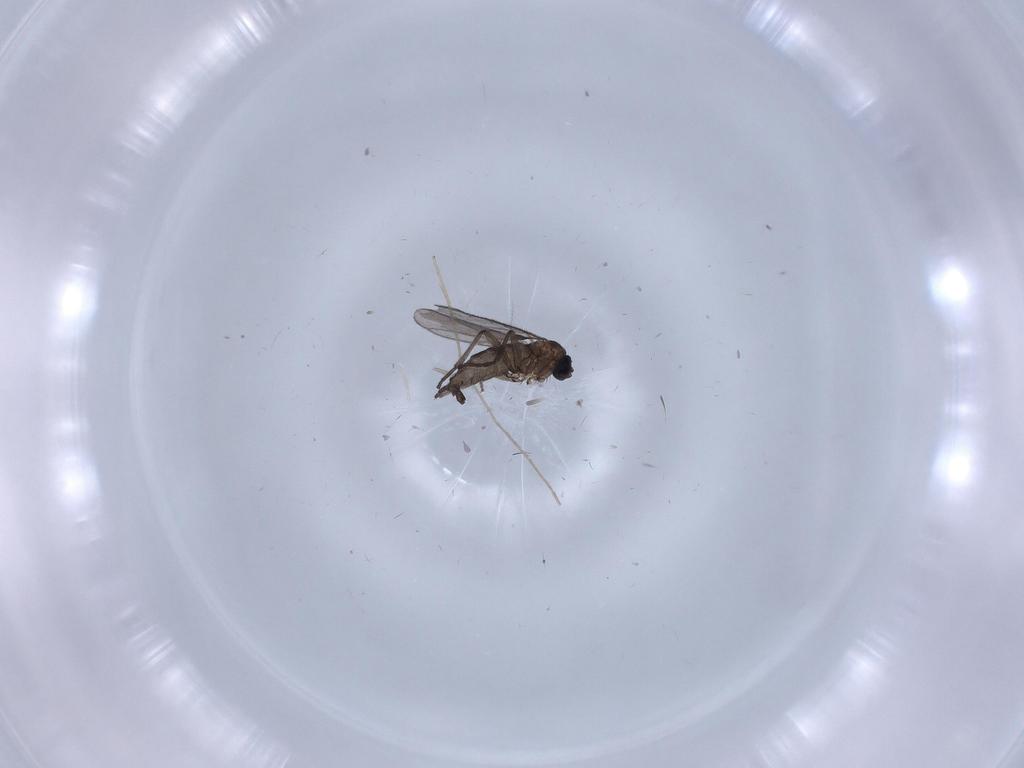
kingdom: Animalia
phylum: Arthropoda
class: Insecta
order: Diptera
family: Chironomidae
